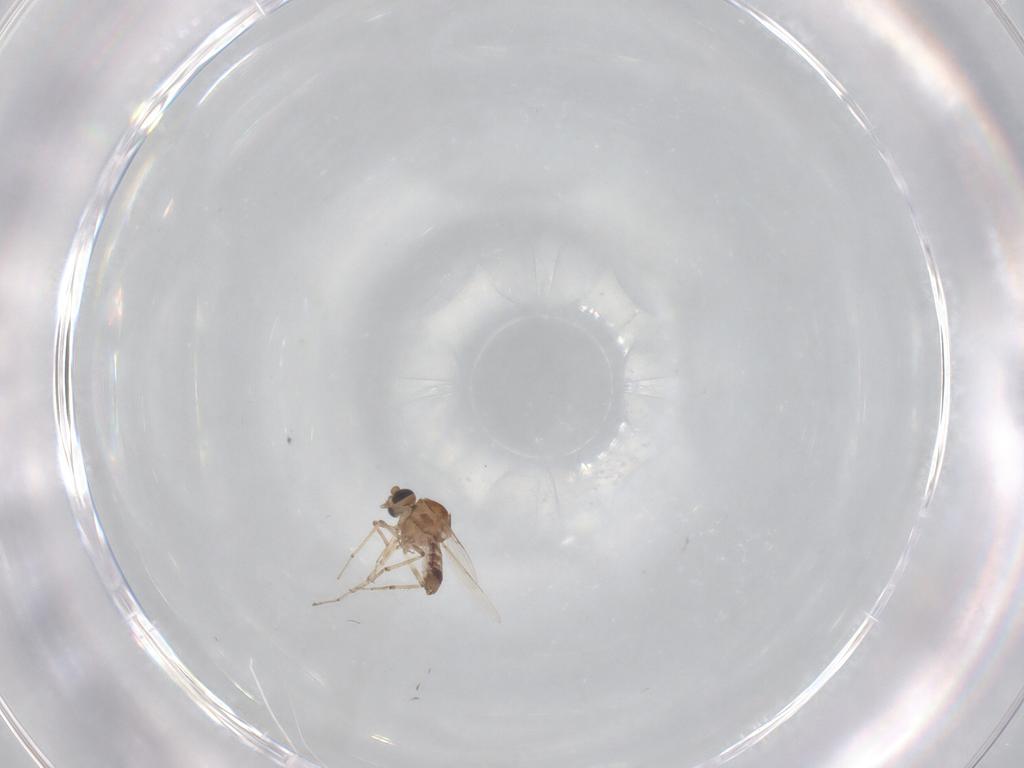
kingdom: Animalia
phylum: Arthropoda
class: Insecta
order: Diptera
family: Ceratopogonidae
